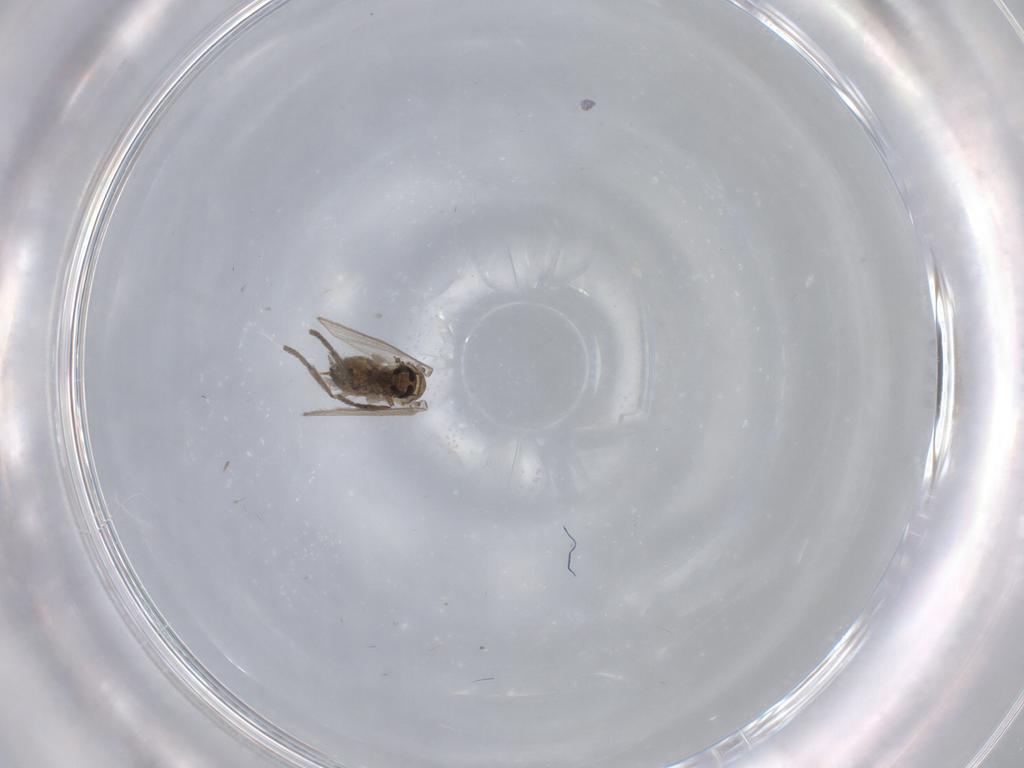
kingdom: Animalia
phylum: Arthropoda
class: Insecta
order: Diptera
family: Psychodidae
